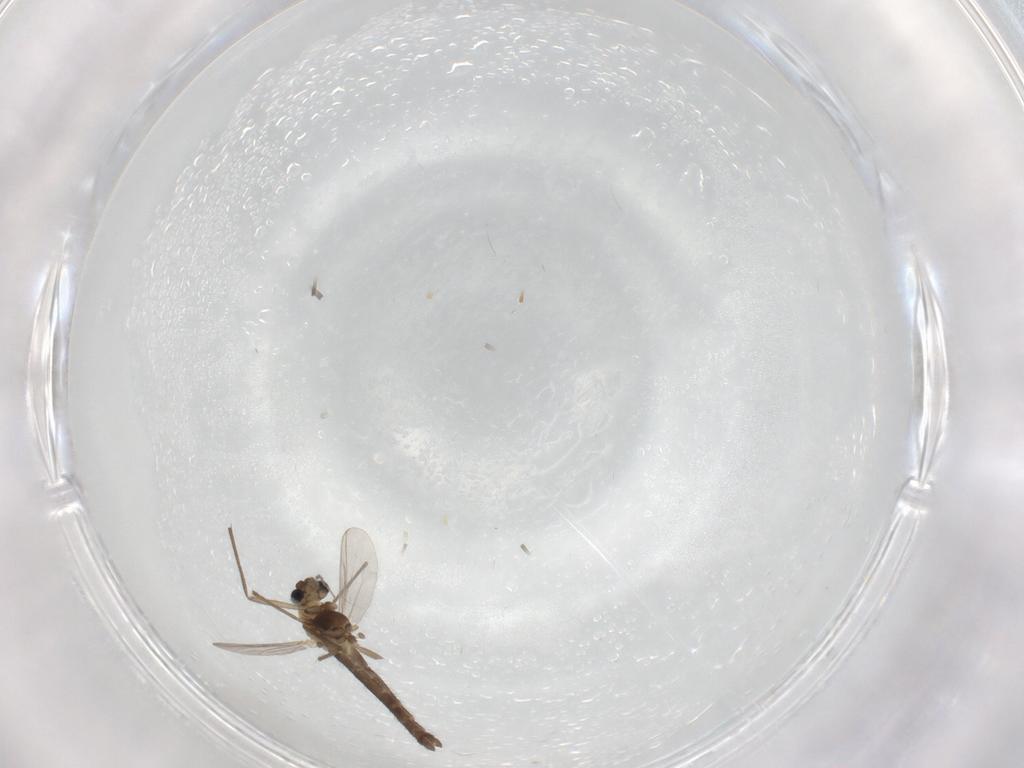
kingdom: Animalia
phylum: Arthropoda
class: Insecta
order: Diptera
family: Chironomidae
